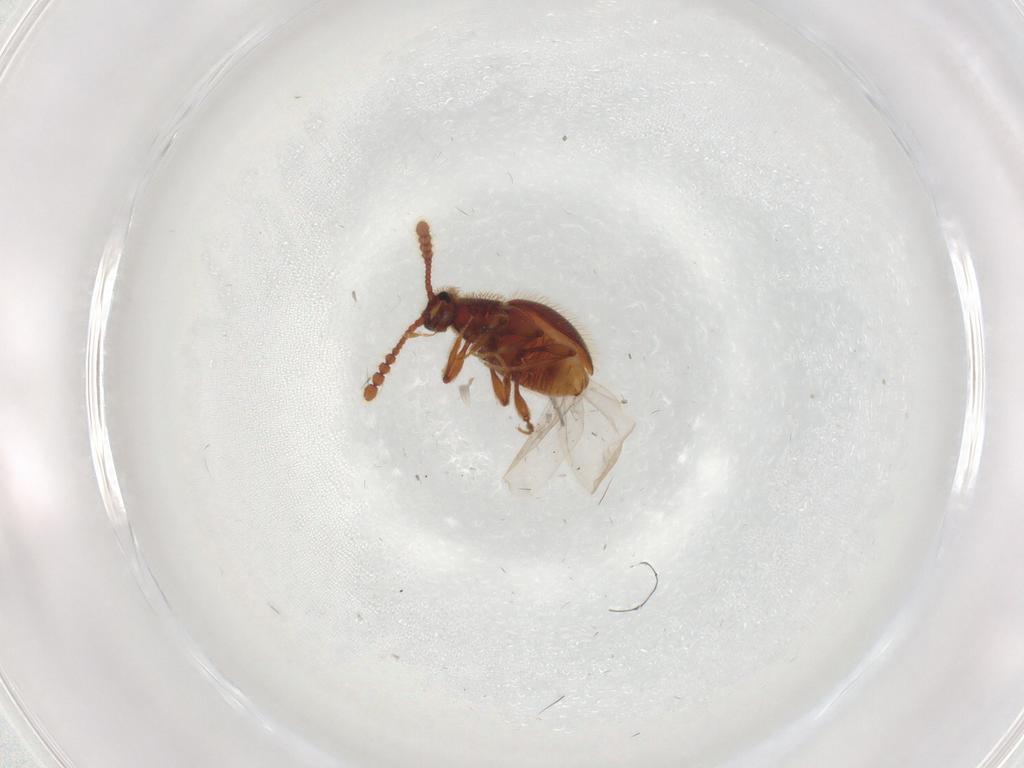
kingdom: Animalia
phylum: Arthropoda
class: Insecta
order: Coleoptera
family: Staphylinidae
